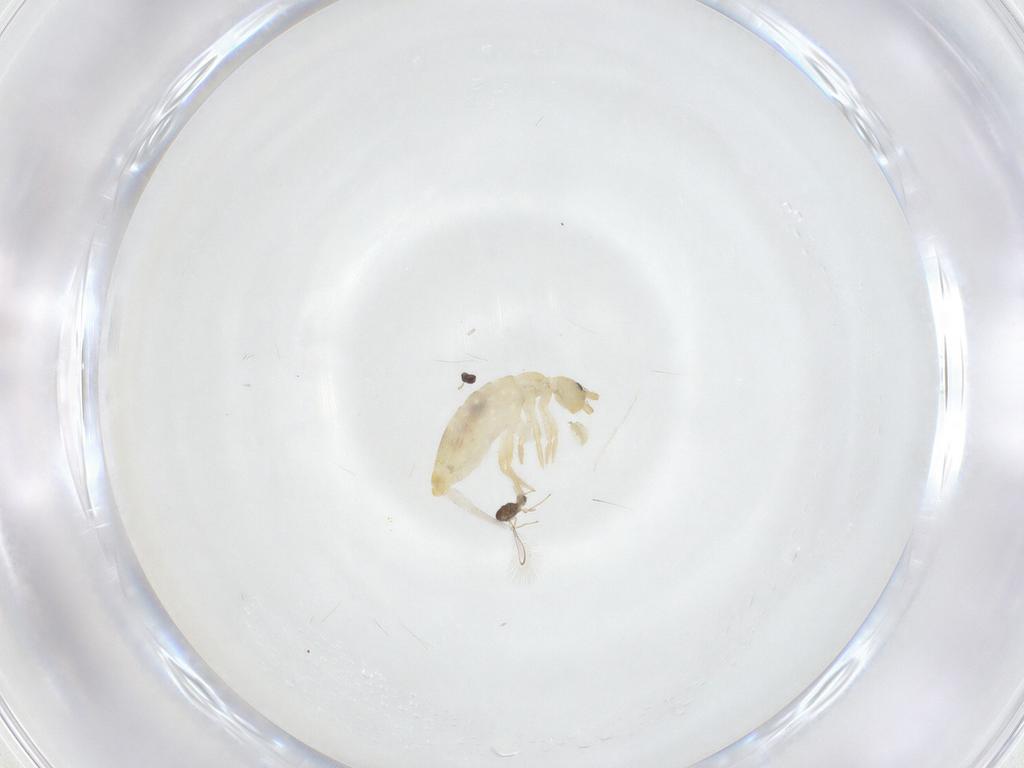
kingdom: Animalia
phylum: Arthropoda
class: Collembola
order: Entomobryomorpha
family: Entomobryidae
